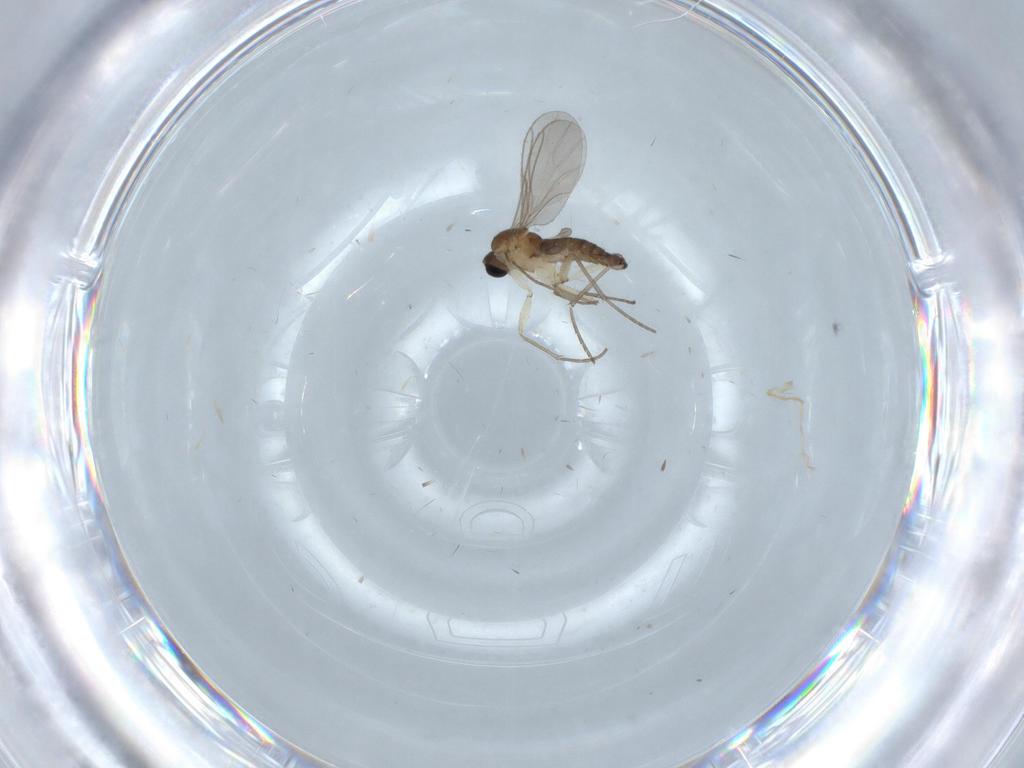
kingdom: Animalia
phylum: Arthropoda
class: Insecta
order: Diptera
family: Sciaridae
